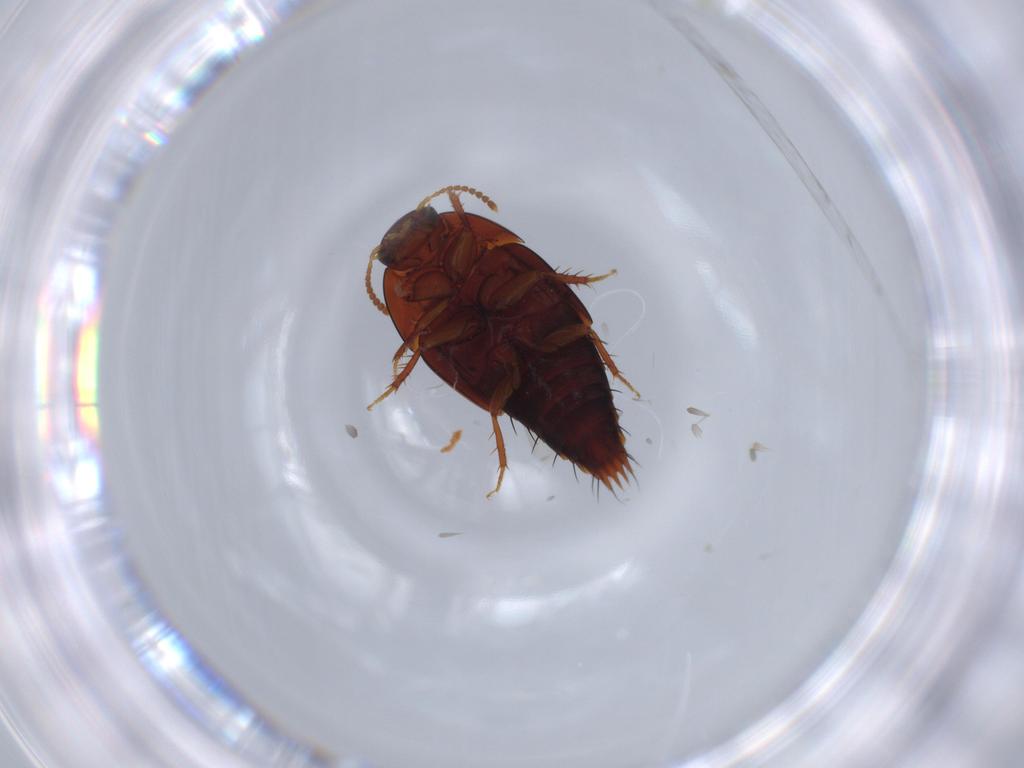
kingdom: Animalia
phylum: Arthropoda
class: Insecta
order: Coleoptera
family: Staphylinidae
